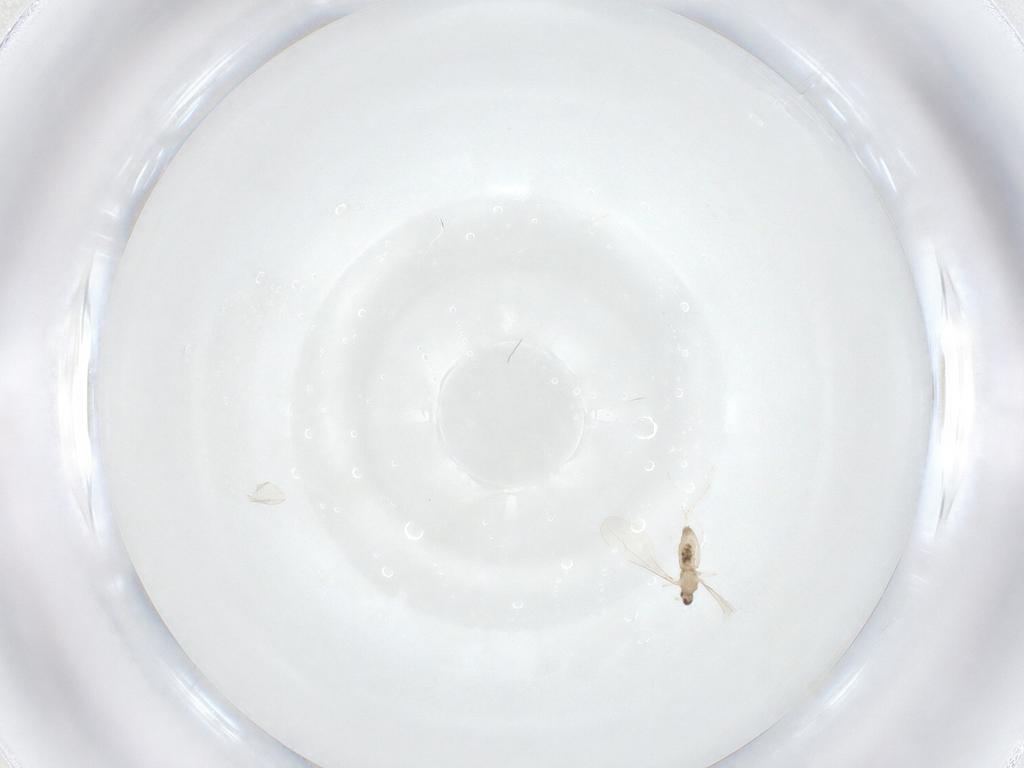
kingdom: Animalia
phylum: Arthropoda
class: Insecta
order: Diptera
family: Cecidomyiidae
